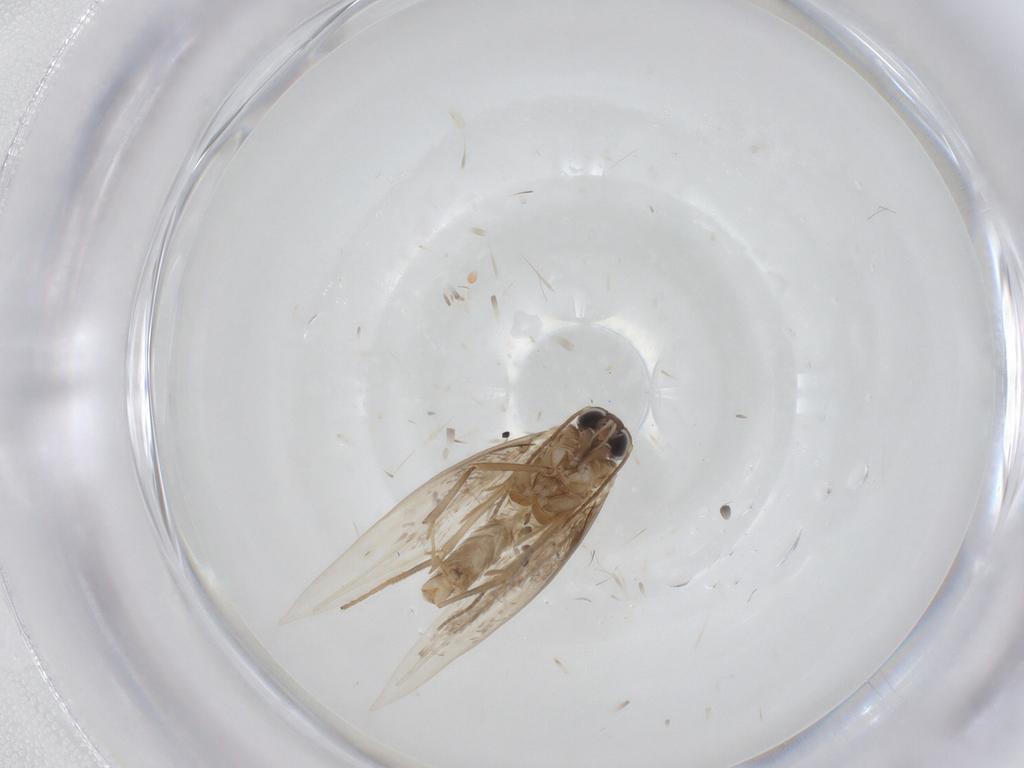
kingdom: Animalia
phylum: Arthropoda
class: Insecta
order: Lepidoptera
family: Tischeriidae
